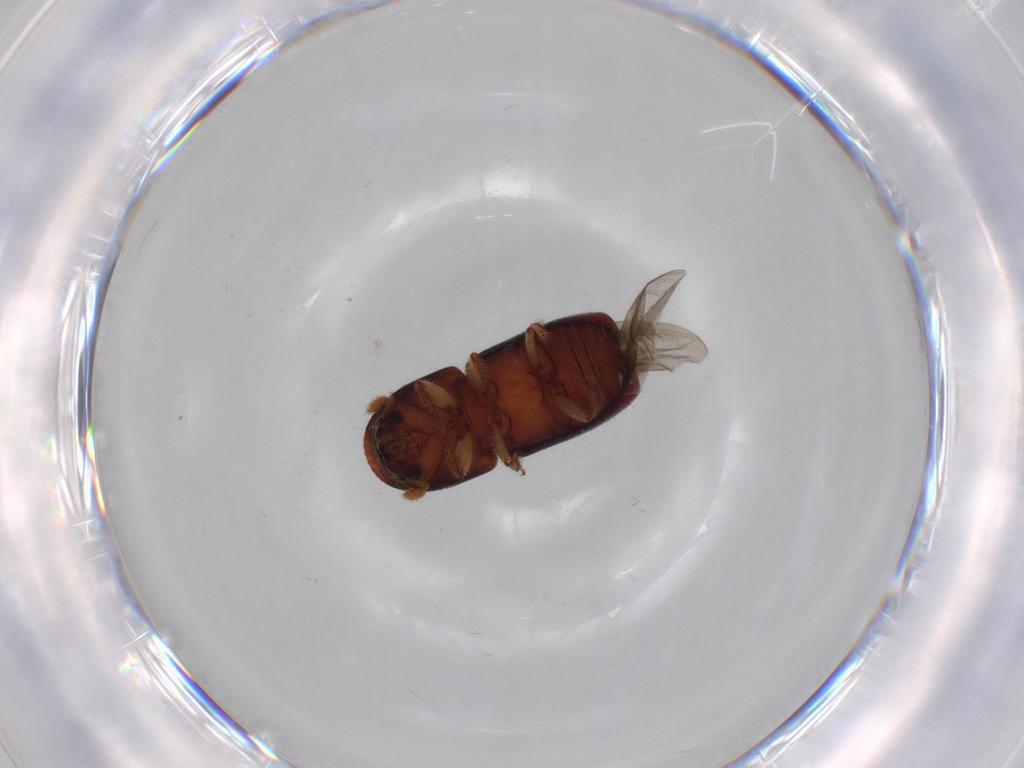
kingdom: Animalia
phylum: Arthropoda
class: Insecta
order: Coleoptera
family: Curculionidae
